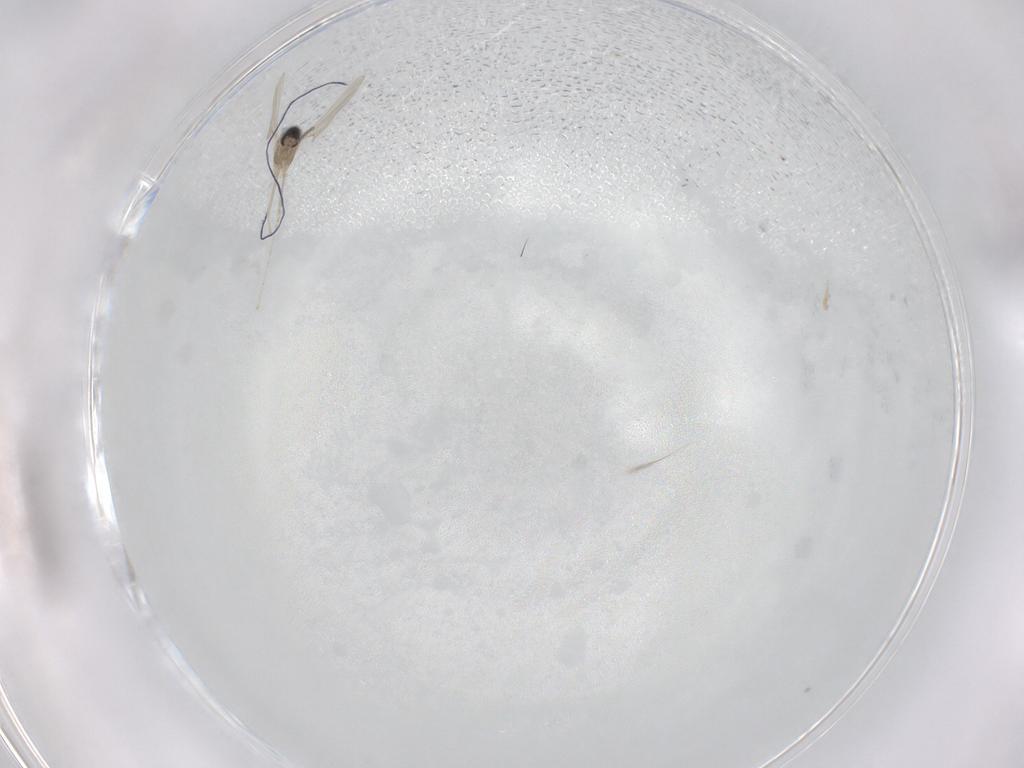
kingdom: Animalia
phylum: Arthropoda
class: Insecta
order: Diptera
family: Cecidomyiidae
